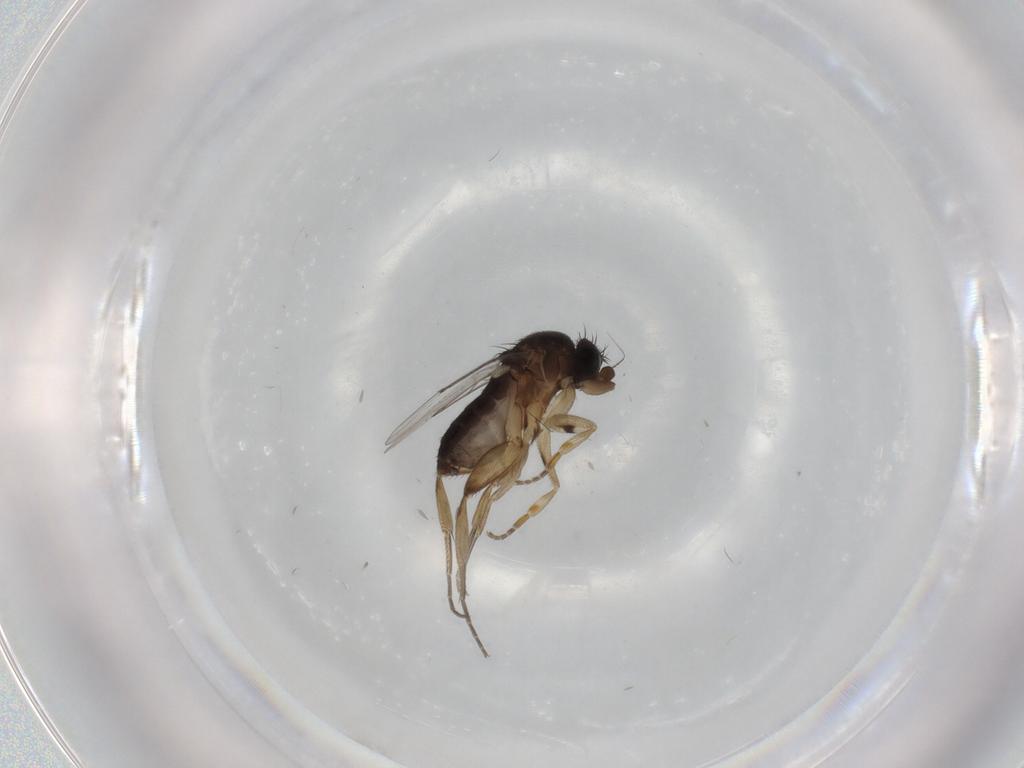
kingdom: Animalia
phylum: Arthropoda
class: Insecta
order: Diptera
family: Phoridae
